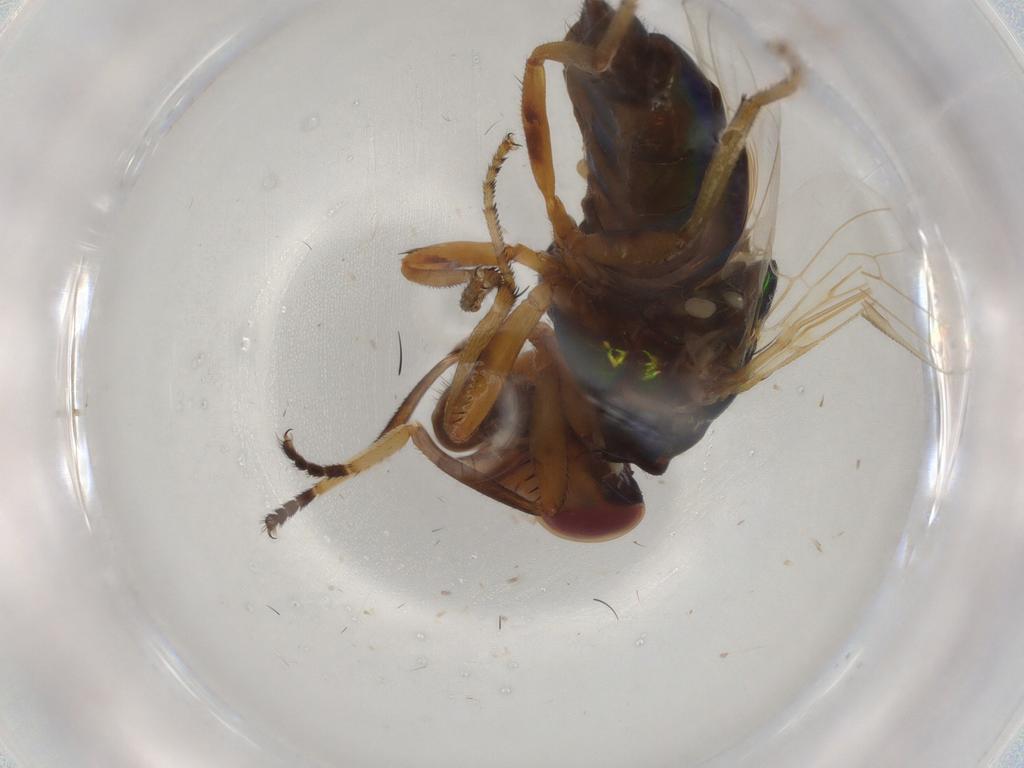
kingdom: Animalia
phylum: Arthropoda
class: Insecta
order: Diptera
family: Ulidiidae
